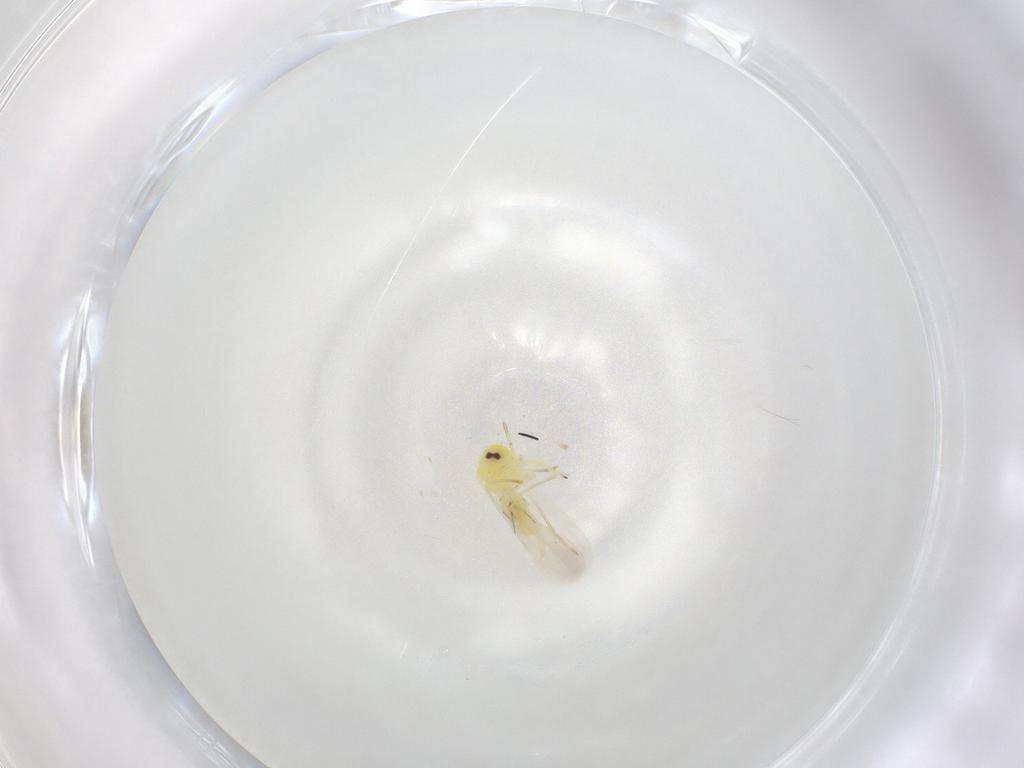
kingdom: Animalia
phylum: Arthropoda
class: Insecta
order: Hemiptera
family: Aleyrodidae
